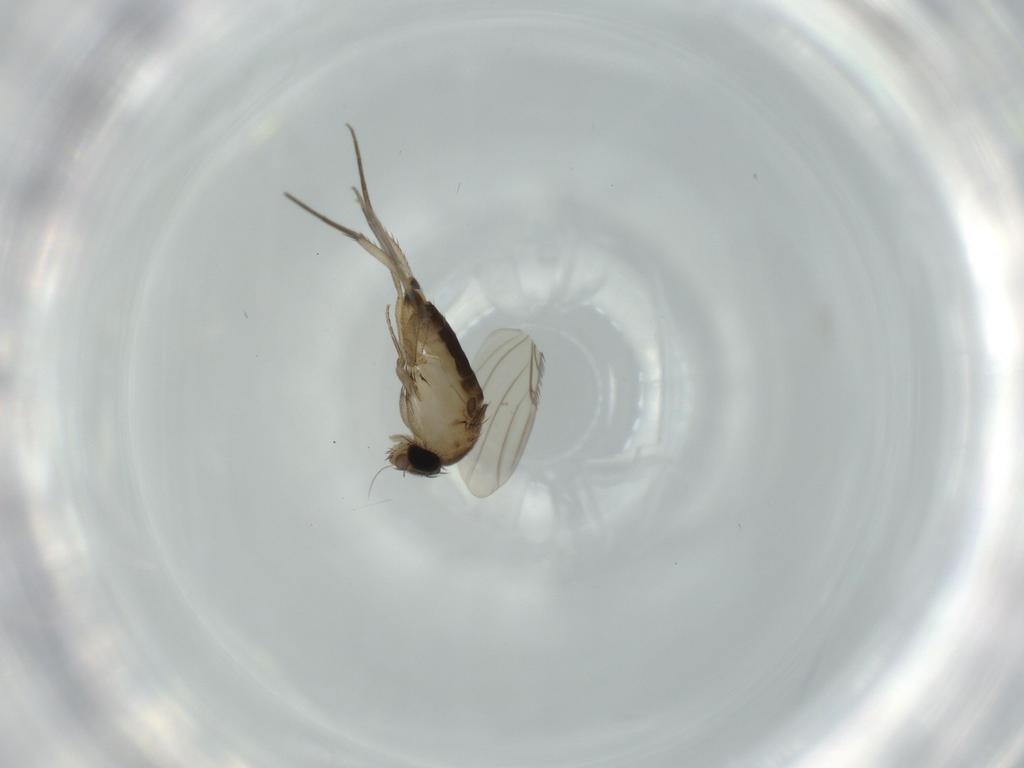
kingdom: Animalia
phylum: Arthropoda
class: Insecta
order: Diptera
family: Phoridae
